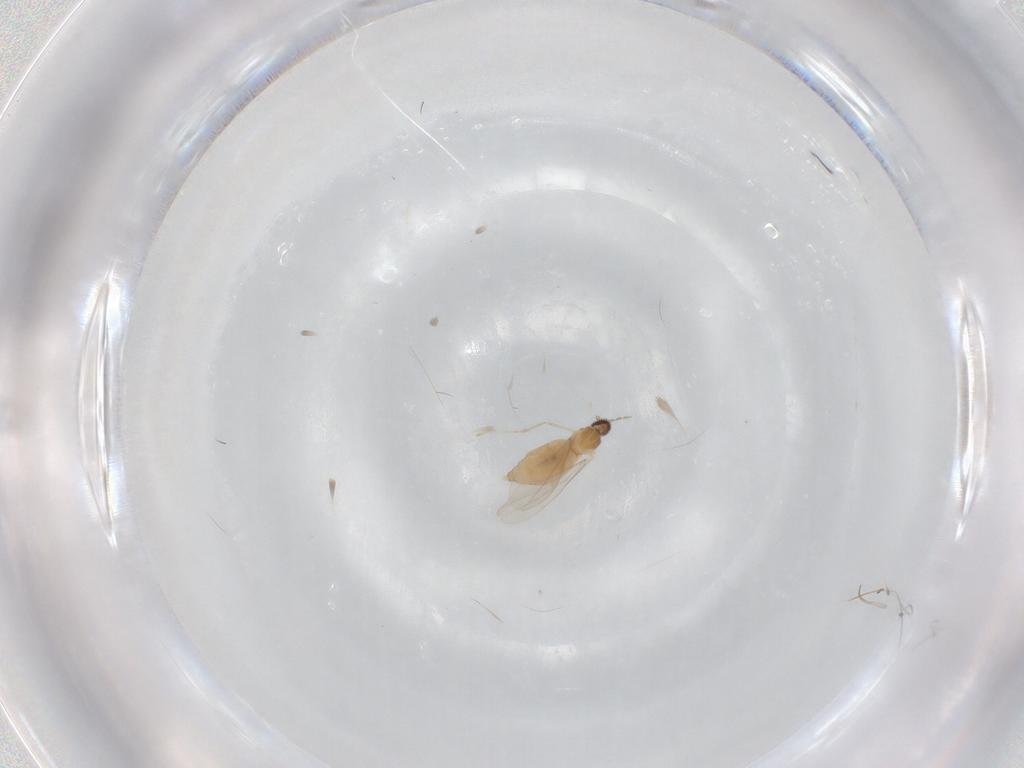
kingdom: Animalia
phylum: Arthropoda
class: Insecta
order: Diptera
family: Cecidomyiidae
